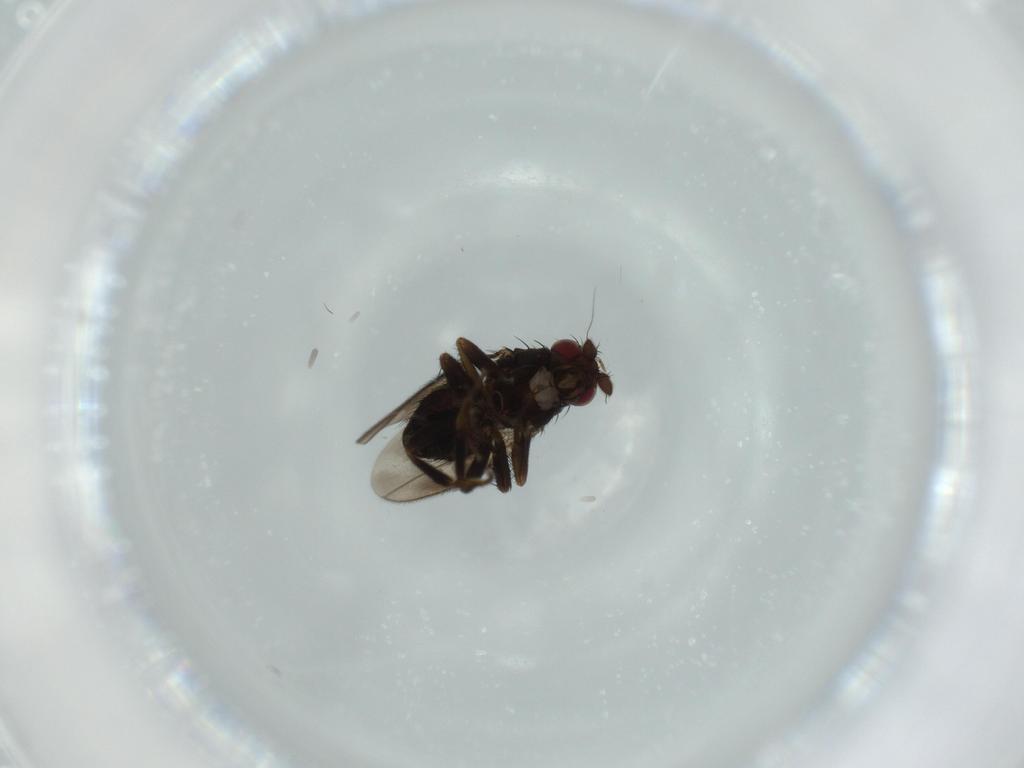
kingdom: Animalia
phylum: Arthropoda
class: Insecta
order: Diptera
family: Sphaeroceridae
